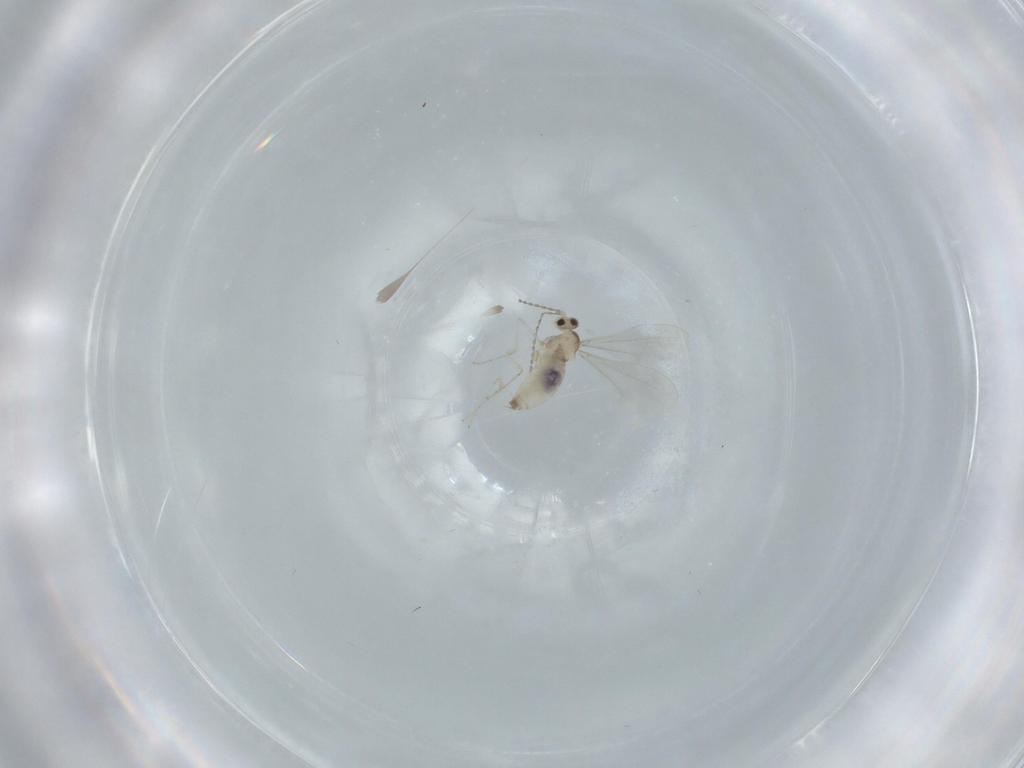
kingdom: Animalia
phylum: Arthropoda
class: Insecta
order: Diptera
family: Cecidomyiidae
